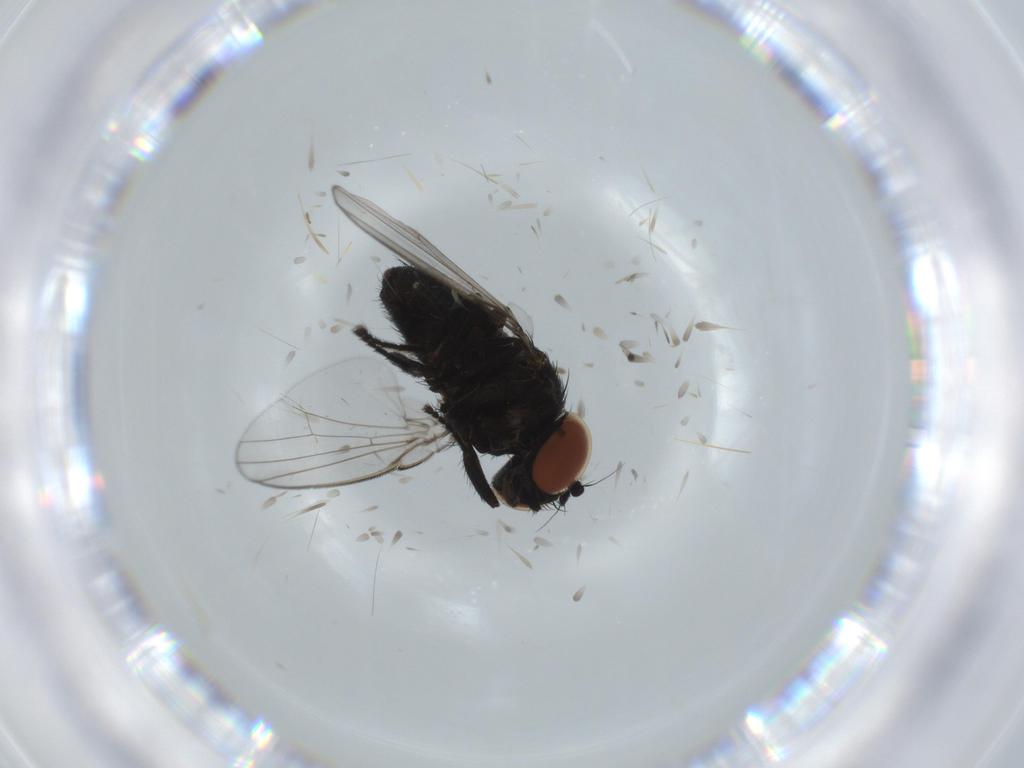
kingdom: Animalia
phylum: Arthropoda
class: Insecta
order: Diptera
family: Milichiidae
